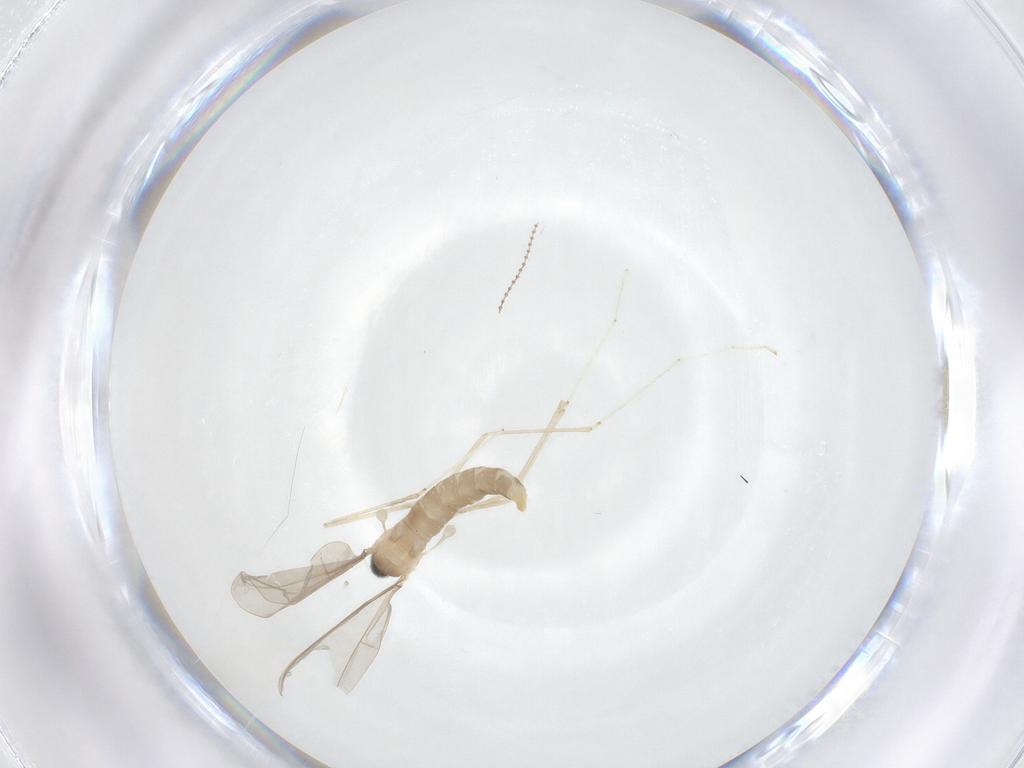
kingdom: Animalia
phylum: Arthropoda
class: Insecta
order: Diptera
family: Cecidomyiidae
